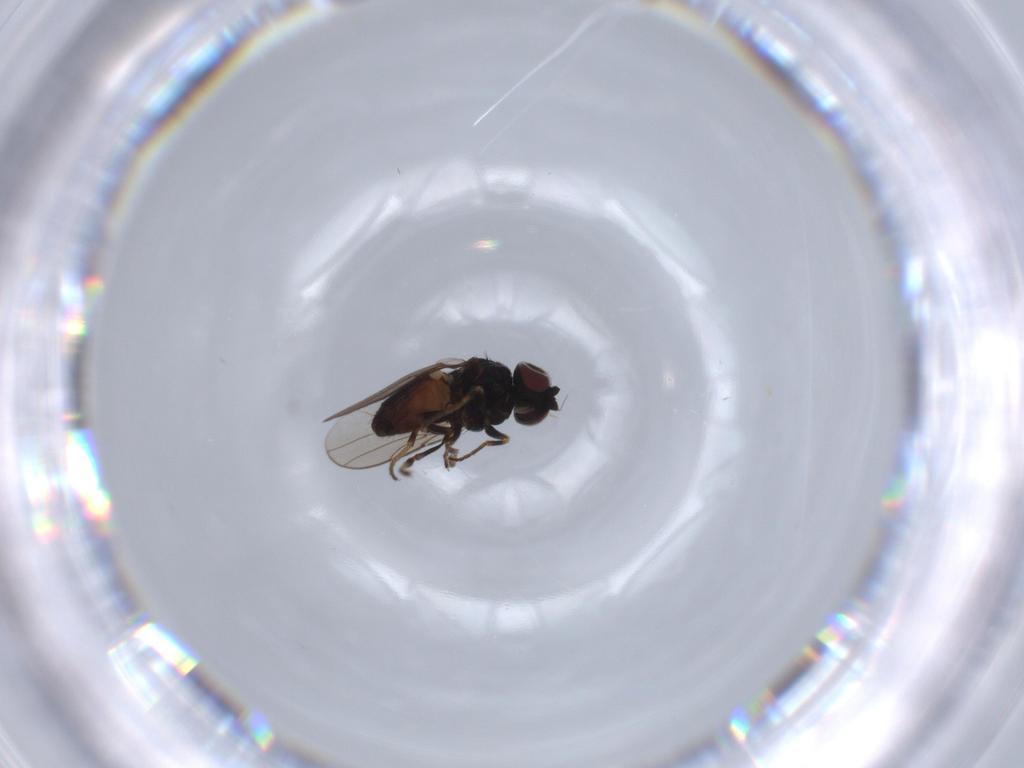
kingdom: Animalia
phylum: Arthropoda
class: Insecta
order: Diptera
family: Chloropidae
